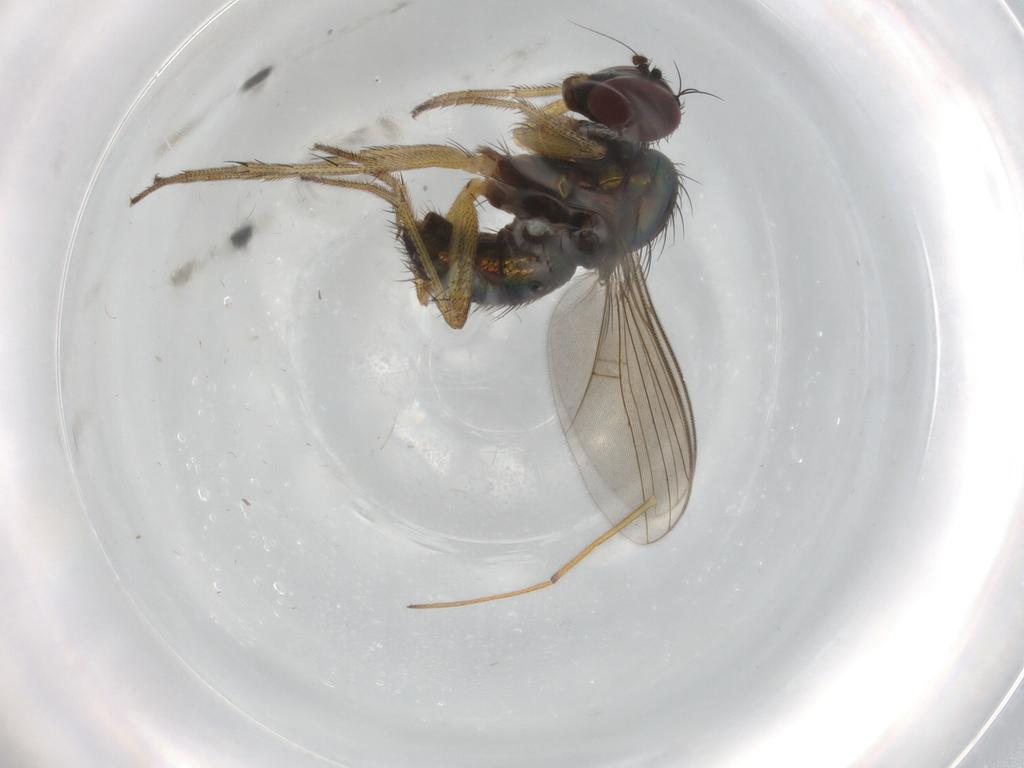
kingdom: Animalia
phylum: Arthropoda
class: Insecta
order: Diptera
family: Dolichopodidae
